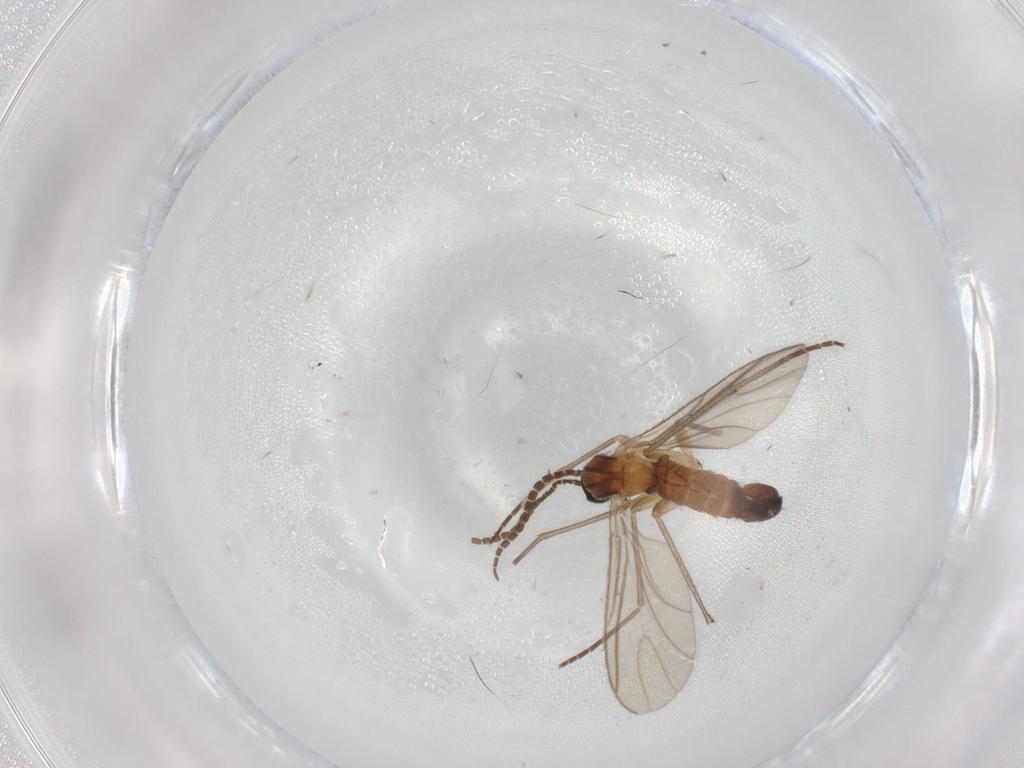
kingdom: Animalia
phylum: Arthropoda
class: Insecta
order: Diptera
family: Sciaridae
